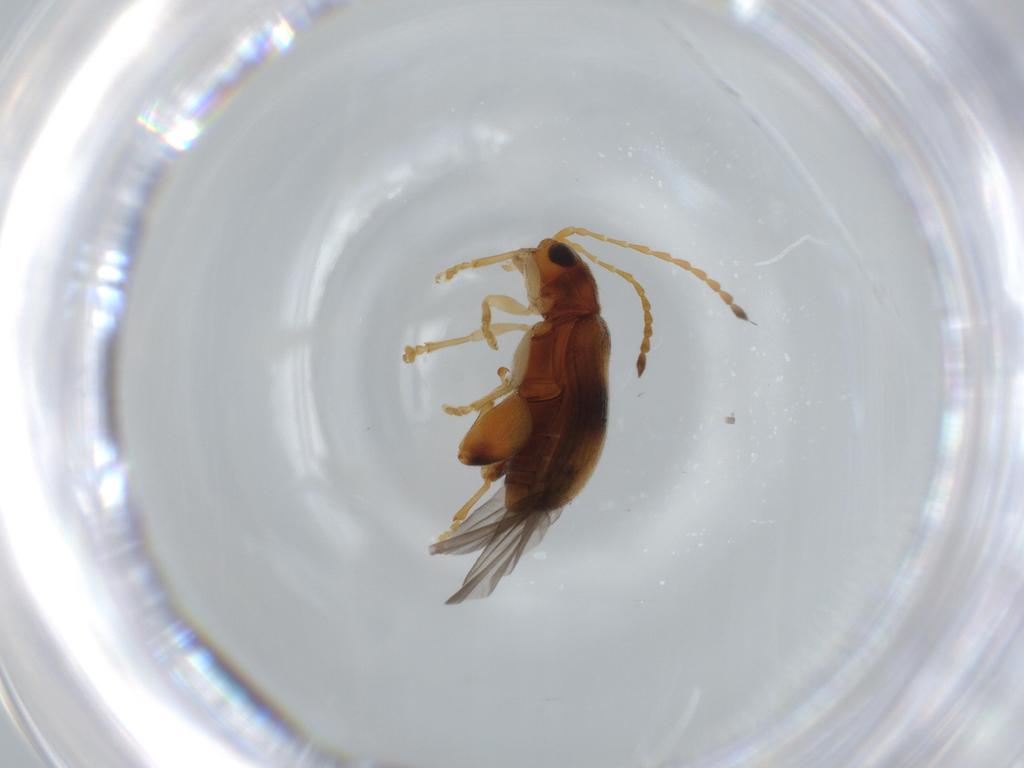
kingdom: Animalia
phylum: Arthropoda
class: Insecta
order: Coleoptera
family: Chrysomelidae
